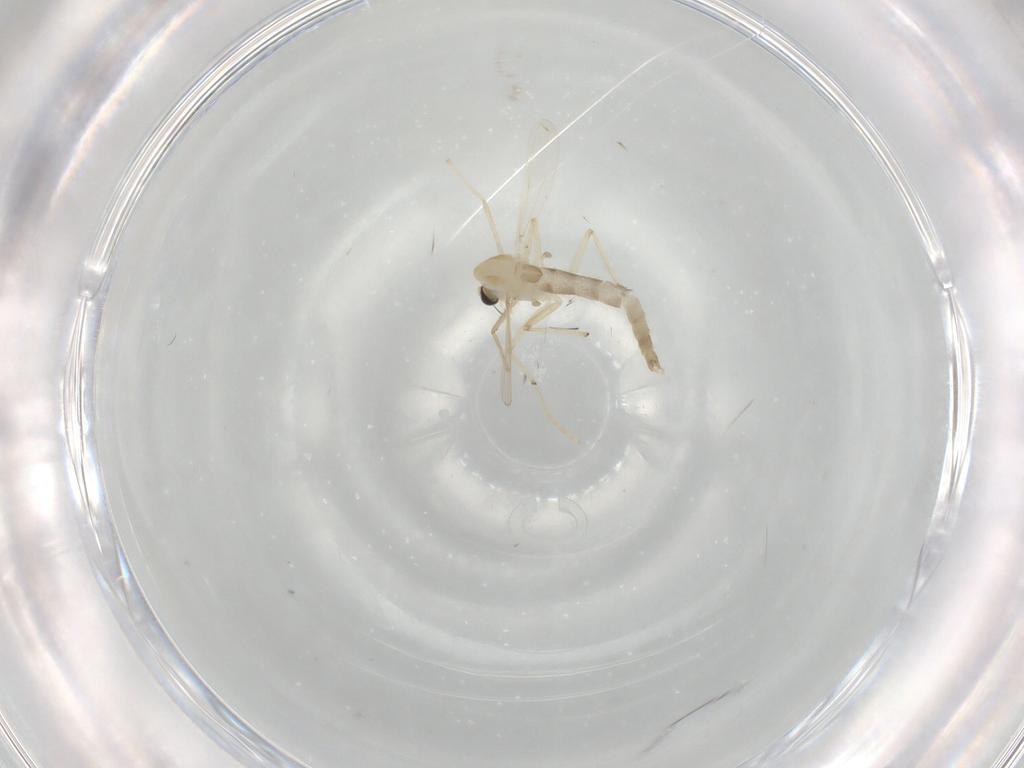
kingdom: Animalia
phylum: Arthropoda
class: Insecta
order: Diptera
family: Chironomidae
